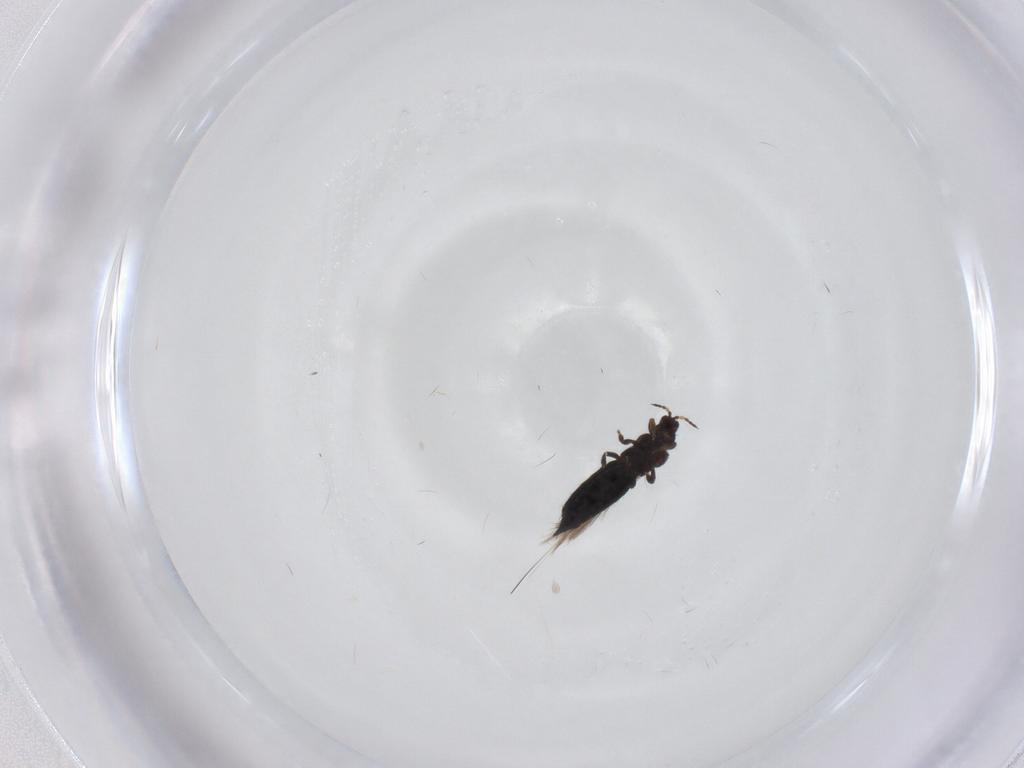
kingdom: Animalia
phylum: Arthropoda
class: Insecta
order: Thysanoptera
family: Thripidae
